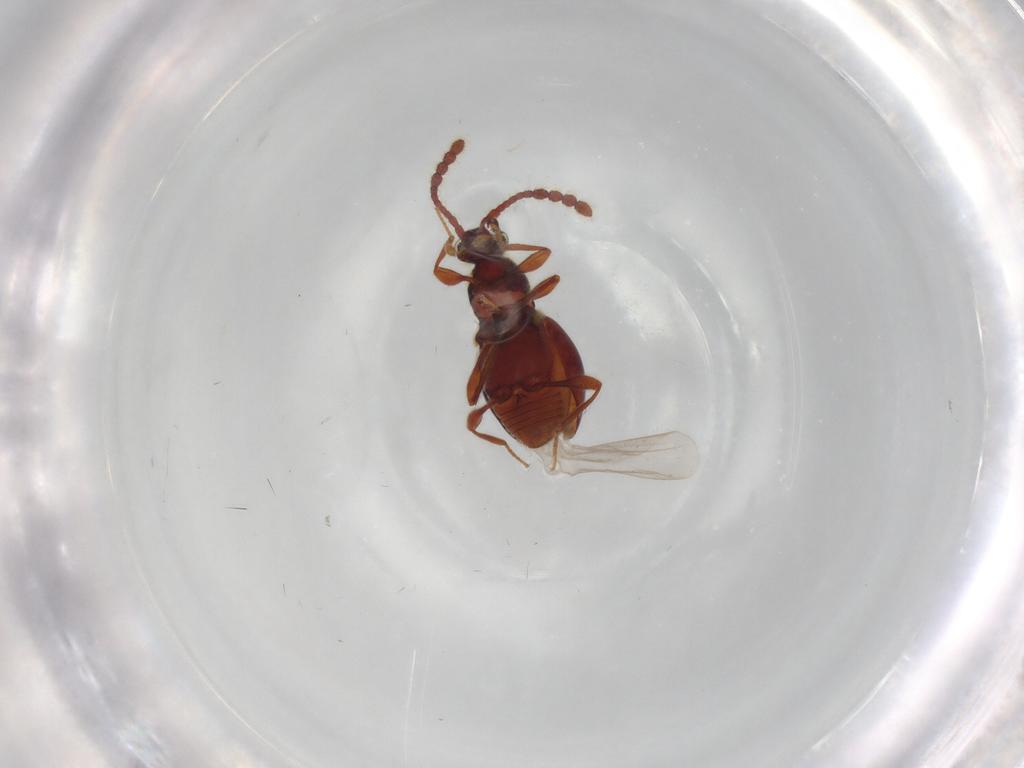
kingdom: Animalia
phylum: Arthropoda
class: Insecta
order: Coleoptera
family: Staphylinidae
